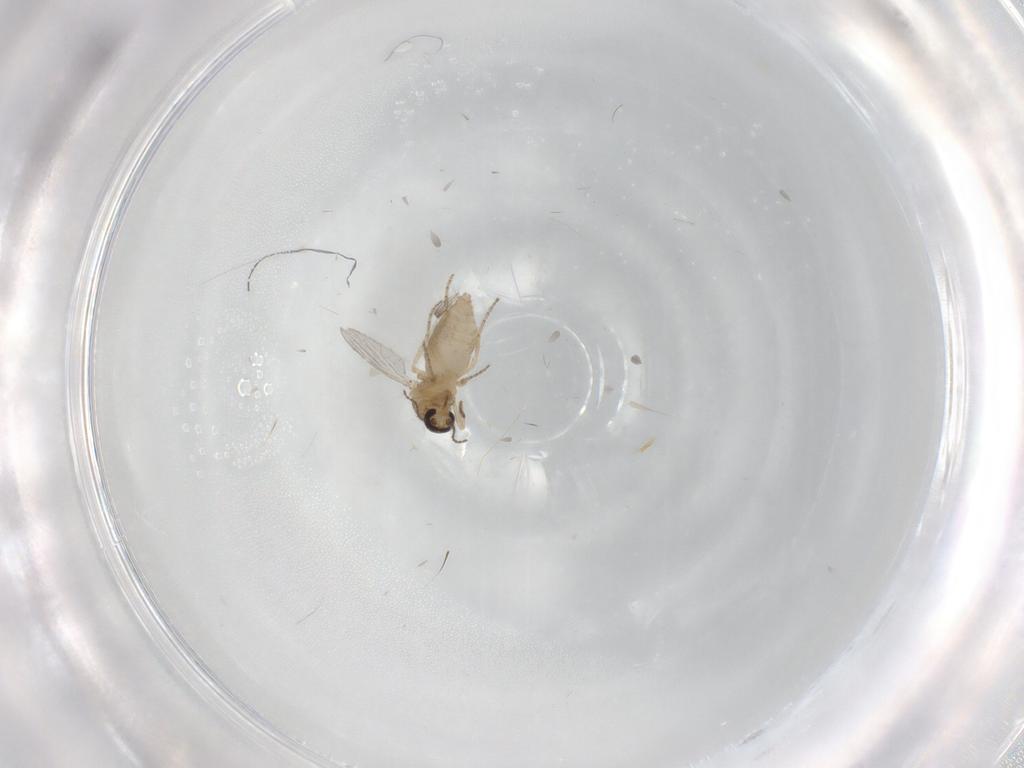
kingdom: Animalia
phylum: Arthropoda
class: Insecta
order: Diptera
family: Ceratopogonidae
